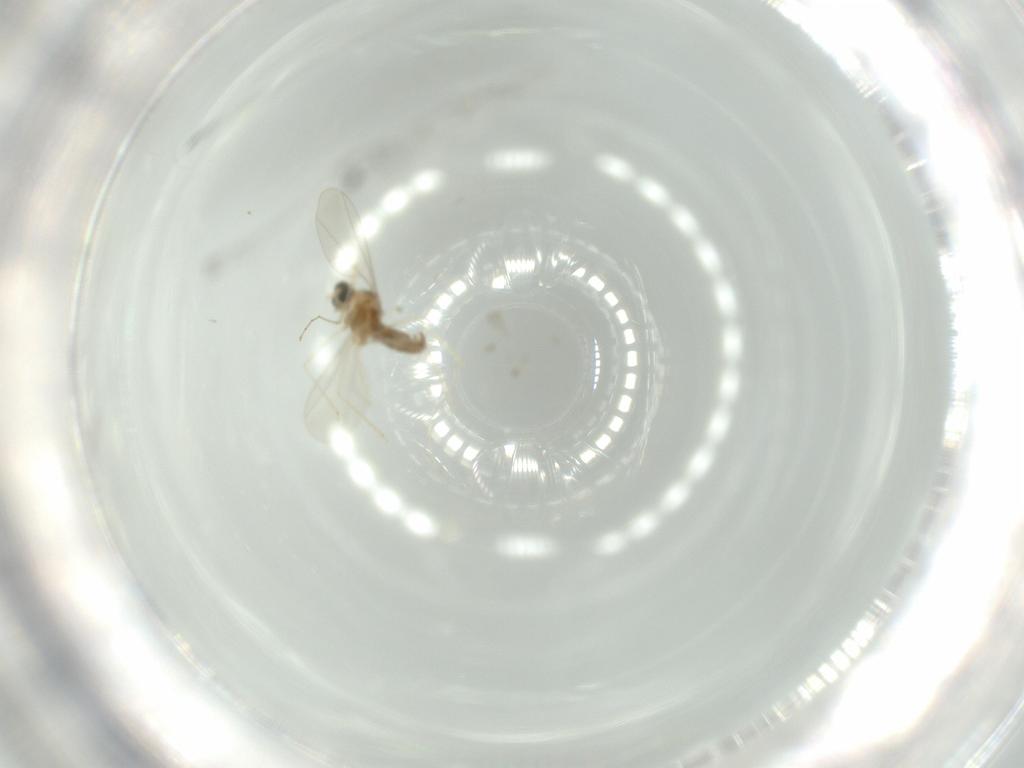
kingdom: Animalia
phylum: Arthropoda
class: Insecta
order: Diptera
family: Cecidomyiidae
